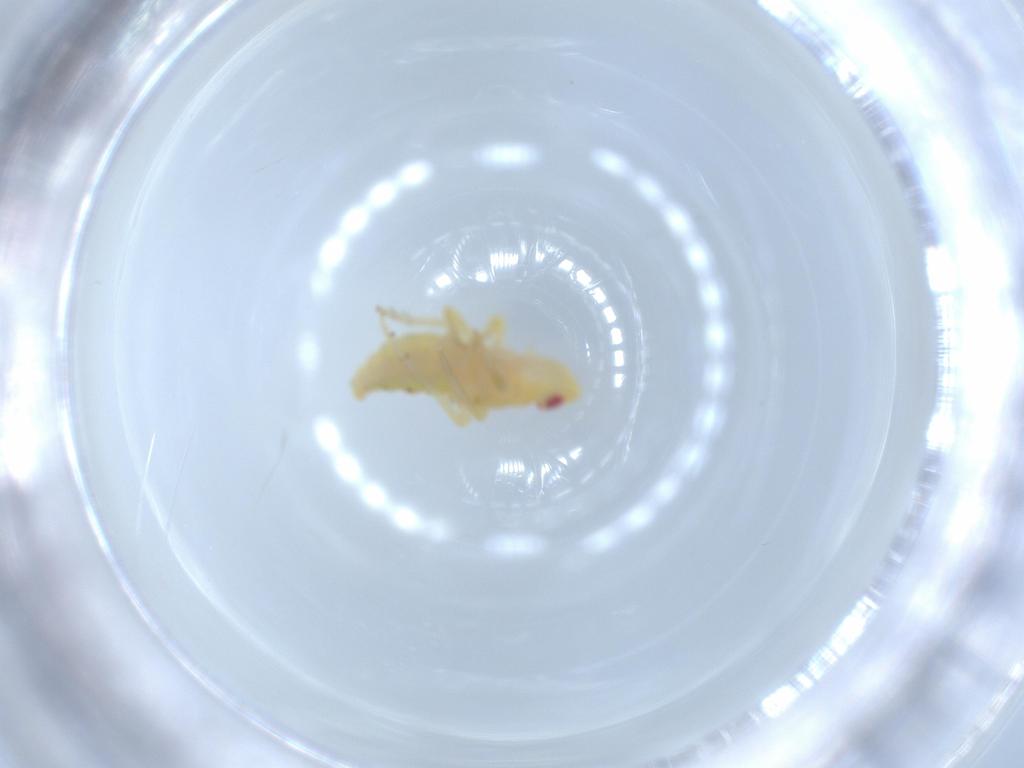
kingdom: Animalia
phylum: Arthropoda
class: Insecta
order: Hemiptera
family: Tropiduchidae
